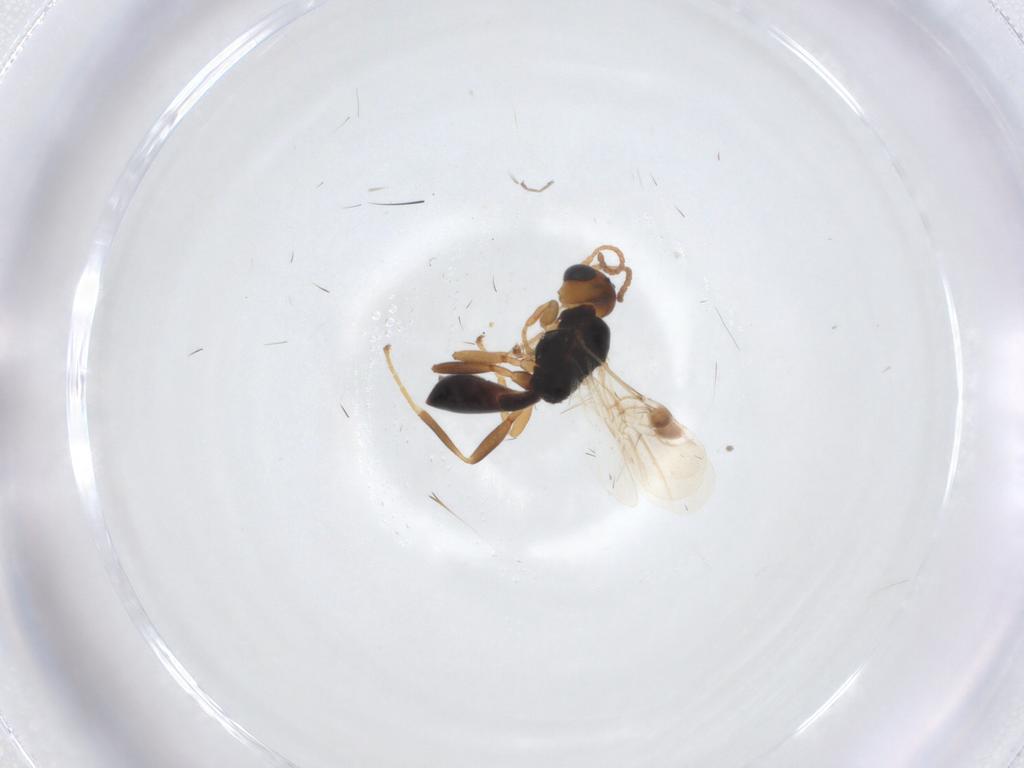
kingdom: Animalia
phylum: Arthropoda
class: Insecta
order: Hymenoptera
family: Braconidae
